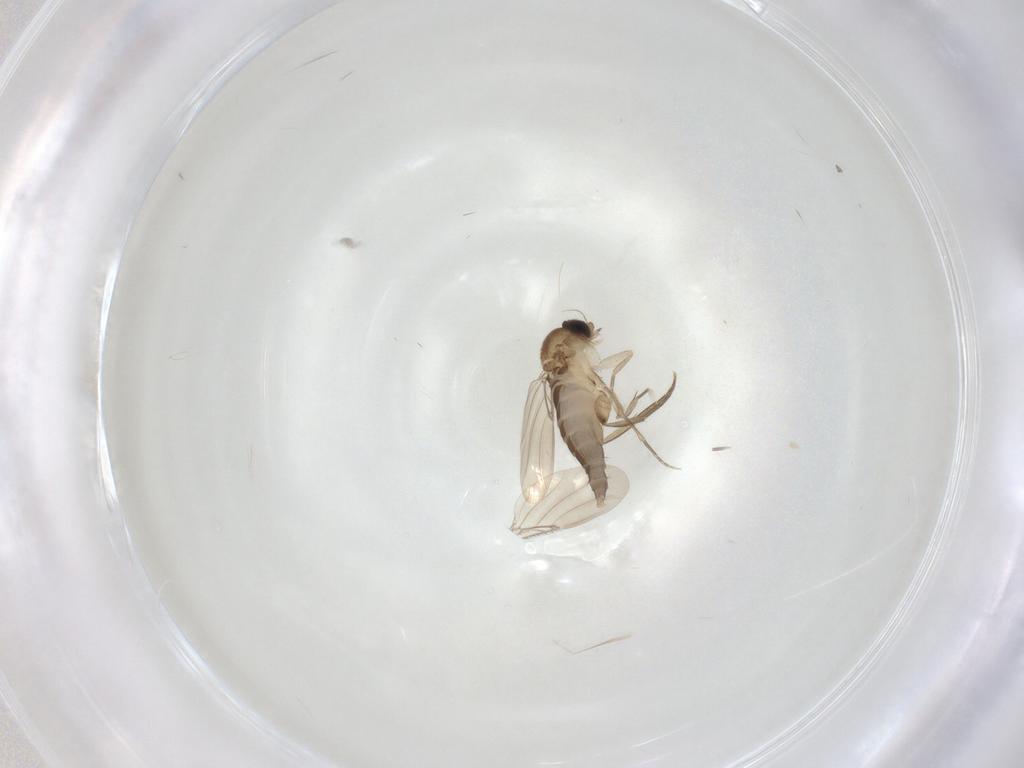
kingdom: Animalia
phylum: Arthropoda
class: Insecta
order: Diptera
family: Phoridae
